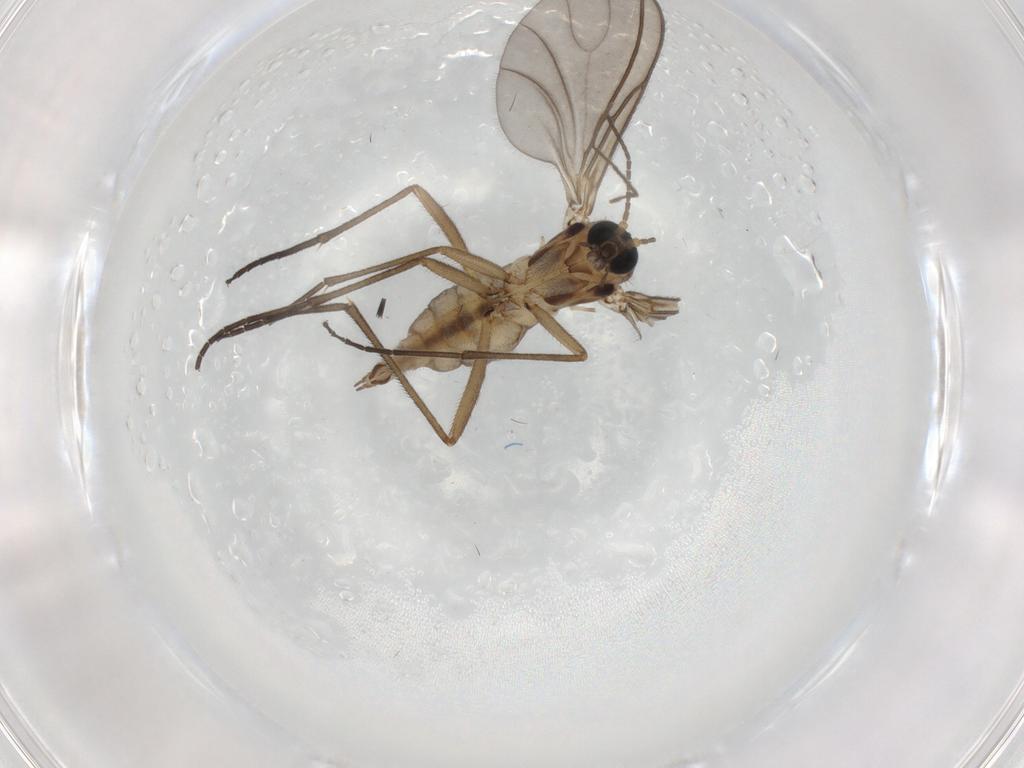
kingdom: Animalia
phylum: Arthropoda
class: Insecta
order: Diptera
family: Sciaridae
